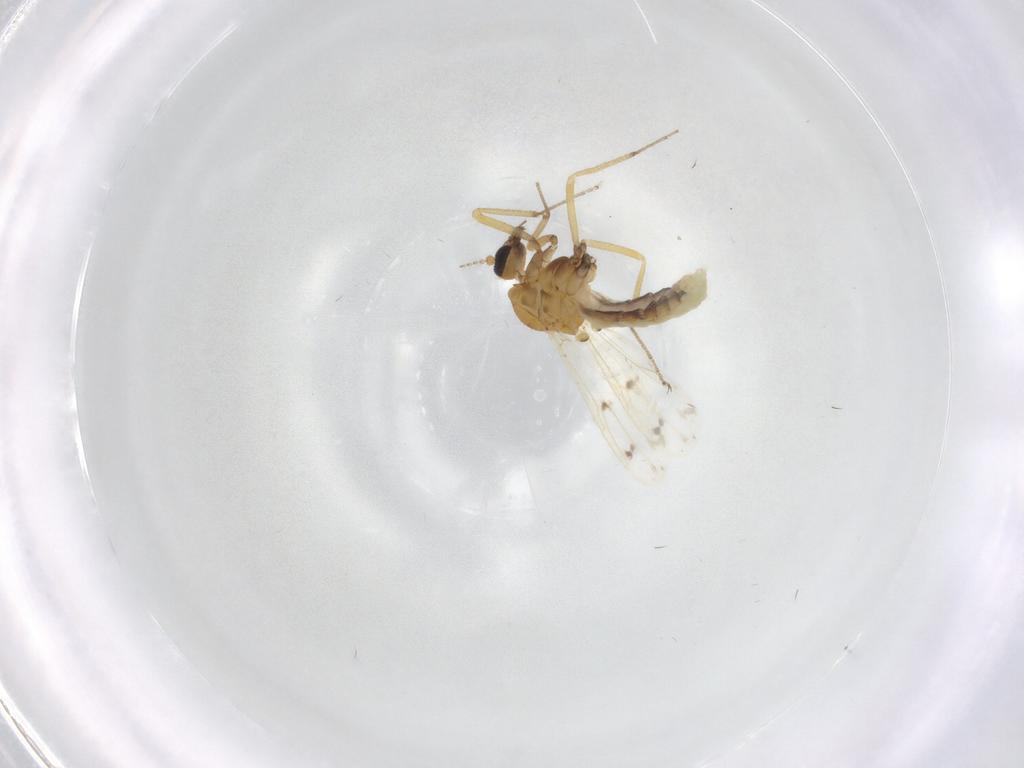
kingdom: Animalia
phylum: Arthropoda
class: Insecta
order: Diptera
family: Ceratopogonidae
